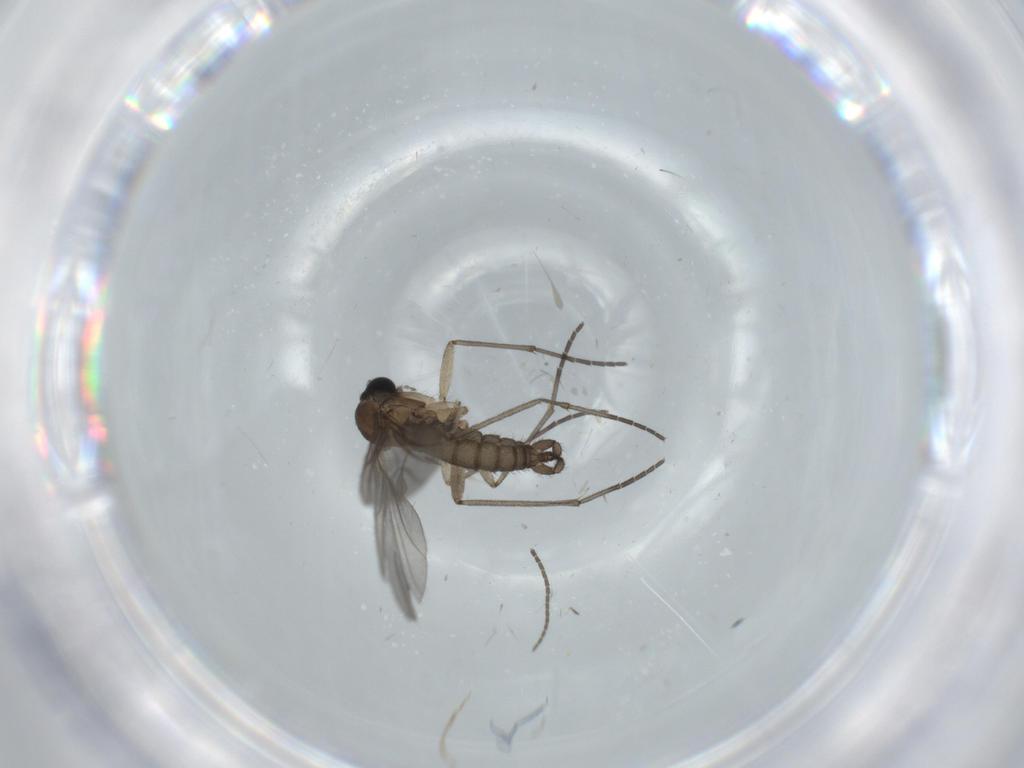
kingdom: Animalia
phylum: Arthropoda
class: Insecta
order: Diptera
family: Sciaridae
